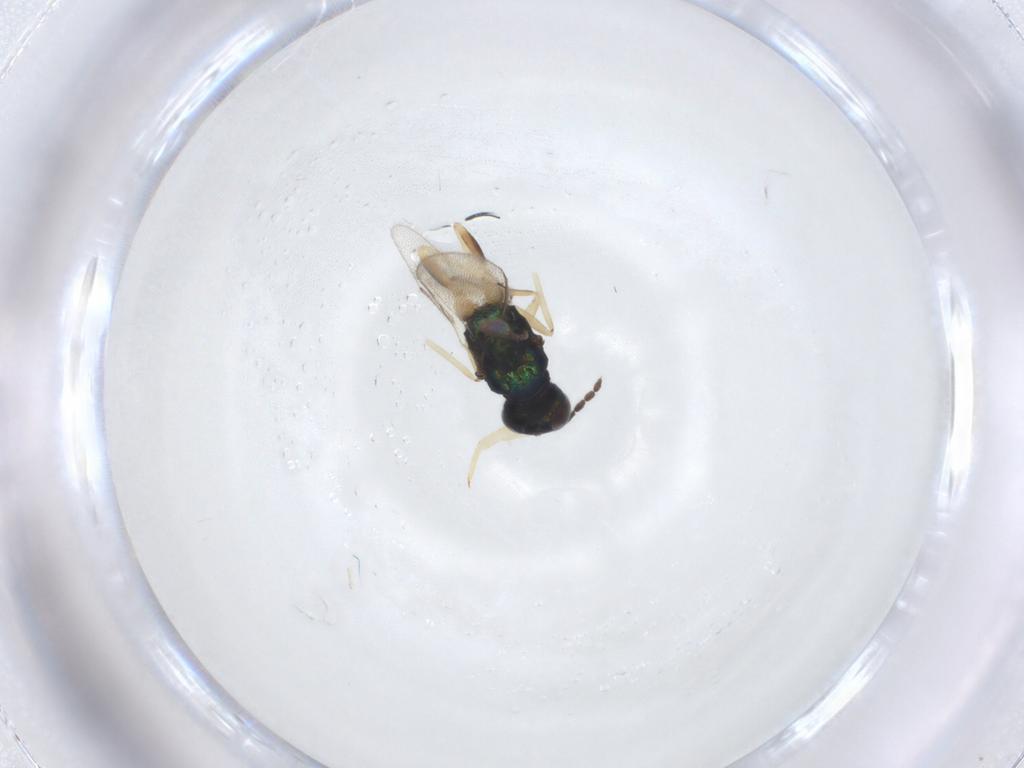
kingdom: Animalia
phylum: Arthropoda
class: Insecta
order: Hymenoptera
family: Eulophidae
